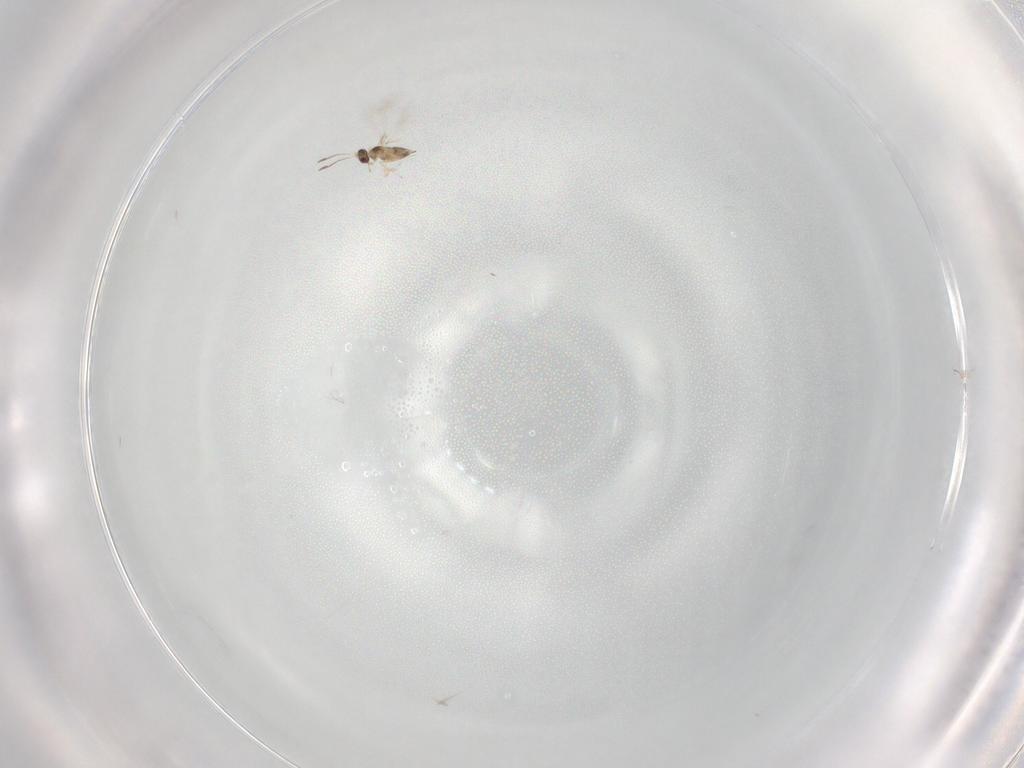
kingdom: Animalia
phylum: Arthropoda
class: Insecta
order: Hymenoptera
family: Mymaridae
